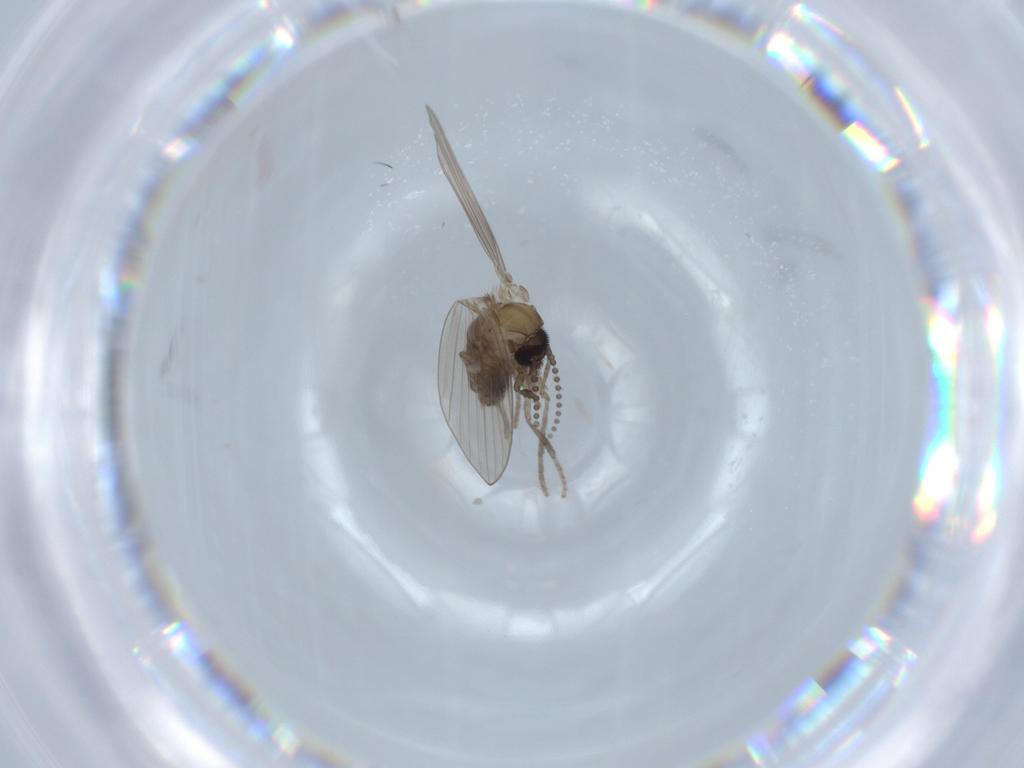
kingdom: Animalia
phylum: Arthropoda
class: Insecta
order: Diptera
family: Psychodidae
